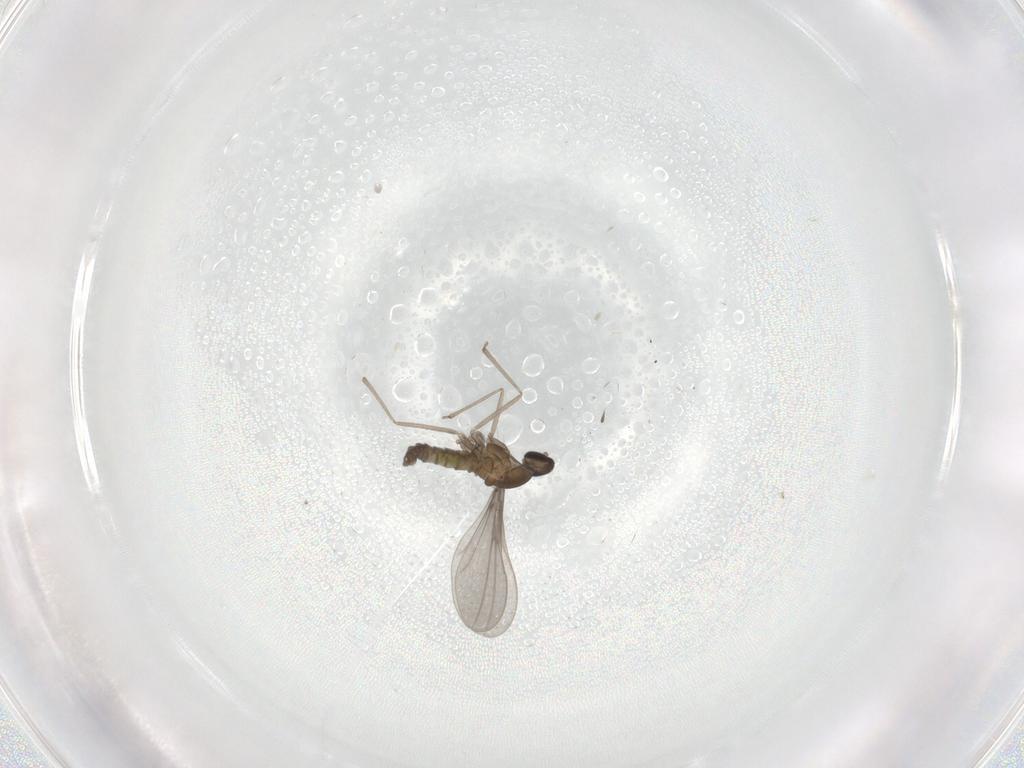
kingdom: Animalia
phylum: Arthropoda
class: Insecta
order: Diptera
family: Cecidomyiidae
